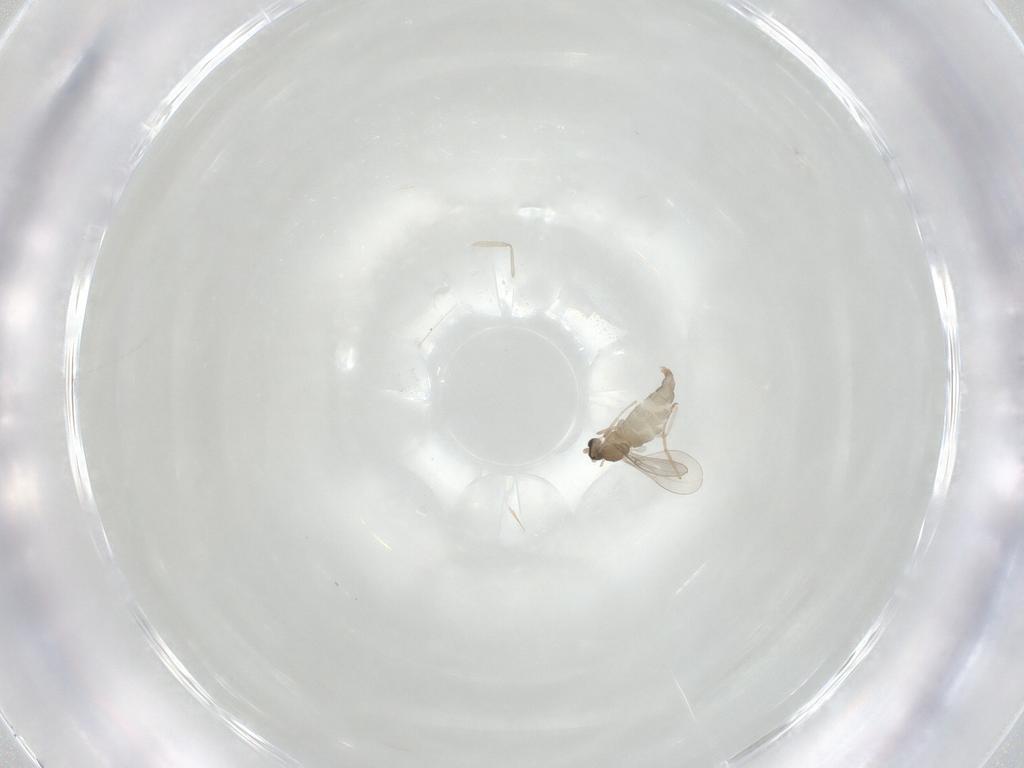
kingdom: Animalia
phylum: Arthropoda
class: Insecta
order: Diptera
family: Cecidomyiidae
